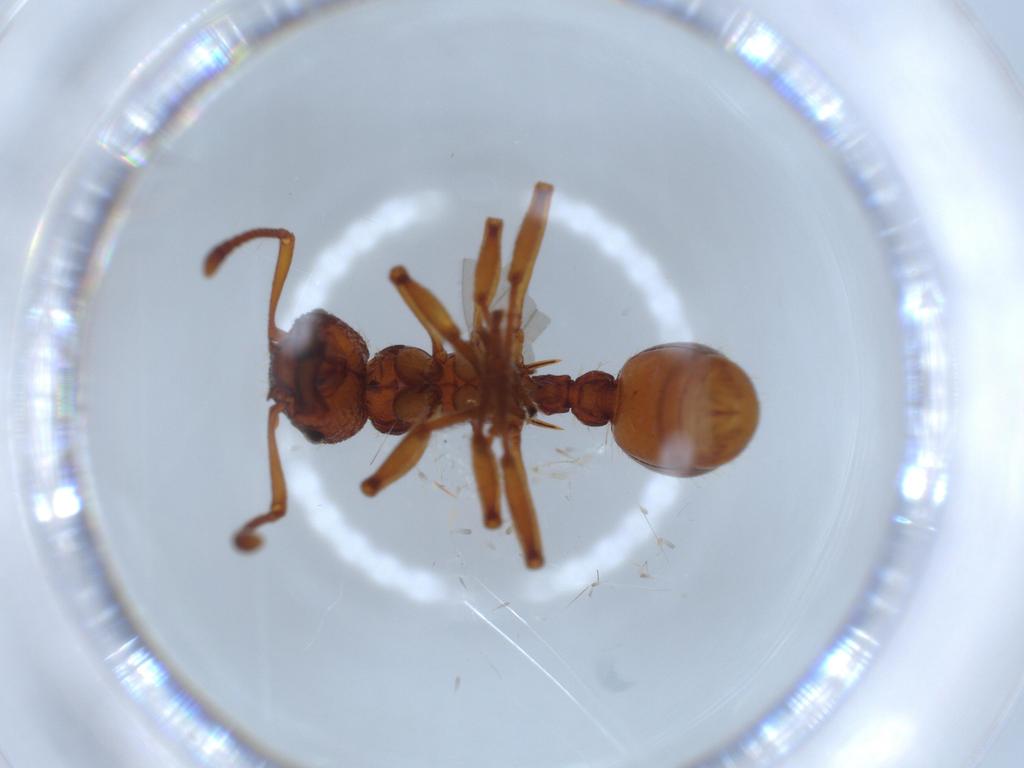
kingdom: Animalia
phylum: Arthropoda
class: Insecta
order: Hymenoptera
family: Formicidae
